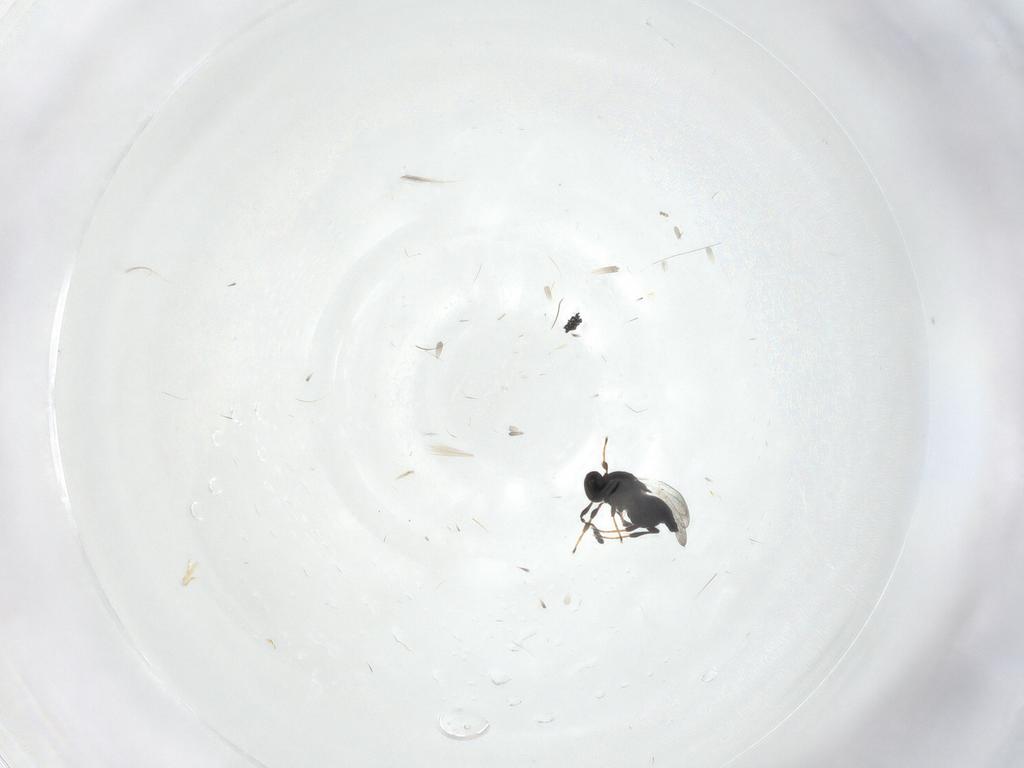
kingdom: Animalia
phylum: Arthropoda
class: Insecta
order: Hymenoptera
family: Platygastridae
